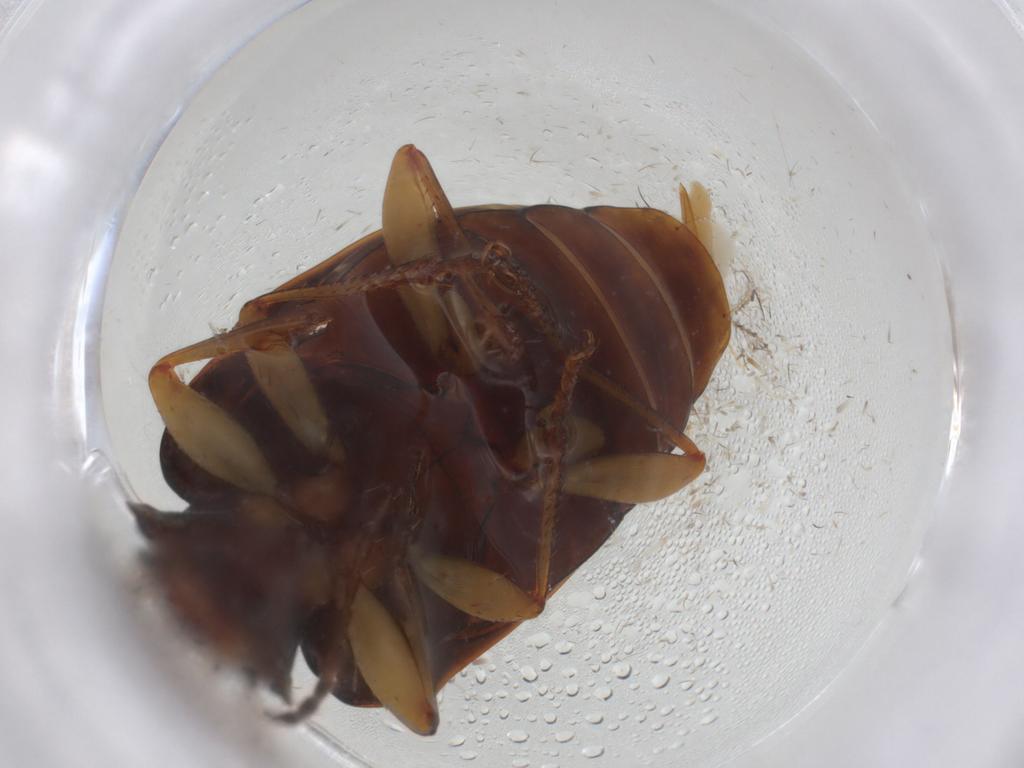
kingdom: Animalia
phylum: Arthropoda
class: Insecta
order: Coleoptera
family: Carabidae
